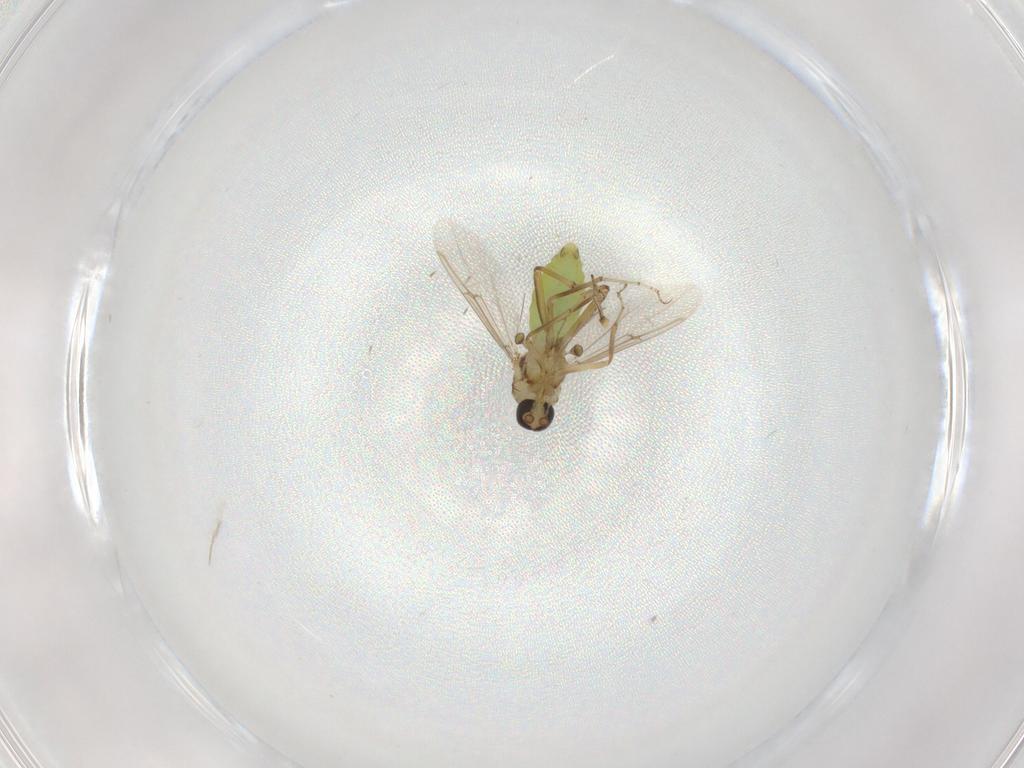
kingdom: Animalia
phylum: Arthropoda
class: Insecta
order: Diptera
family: Ceratopogonidae
